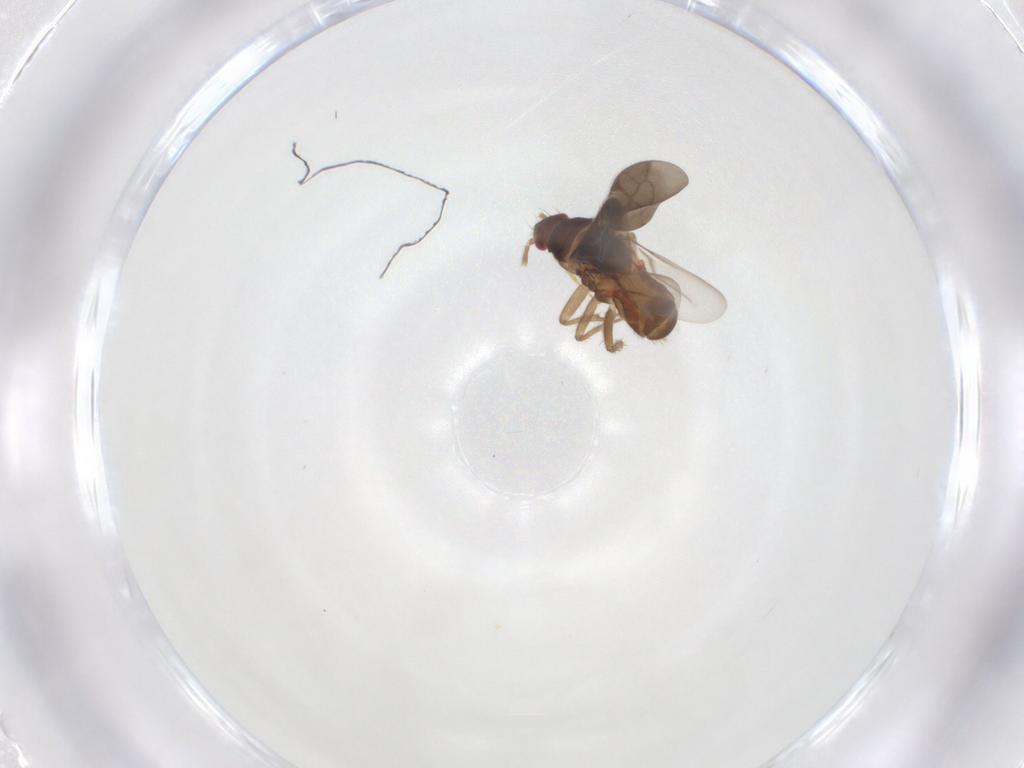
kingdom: Animalia
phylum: Arthropoda
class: Insecta
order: Hemiptera
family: Ceratocombidae
